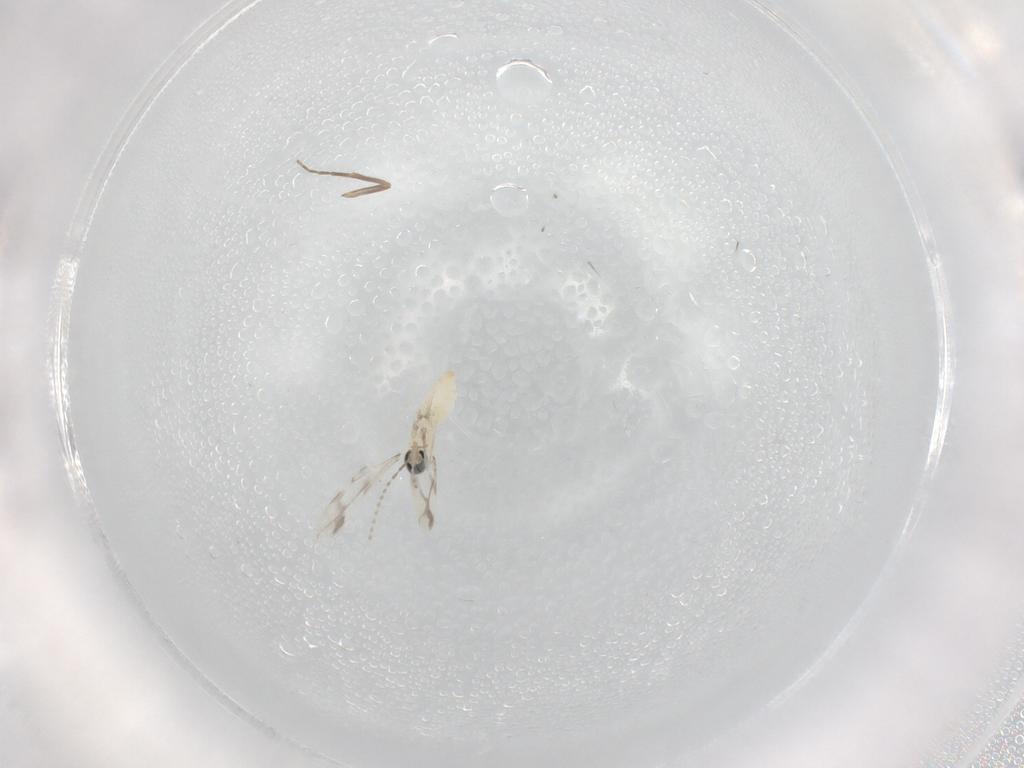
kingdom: Animalia
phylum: Arthropoda
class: Insecta
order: Diptera
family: Cecidomyiidae
